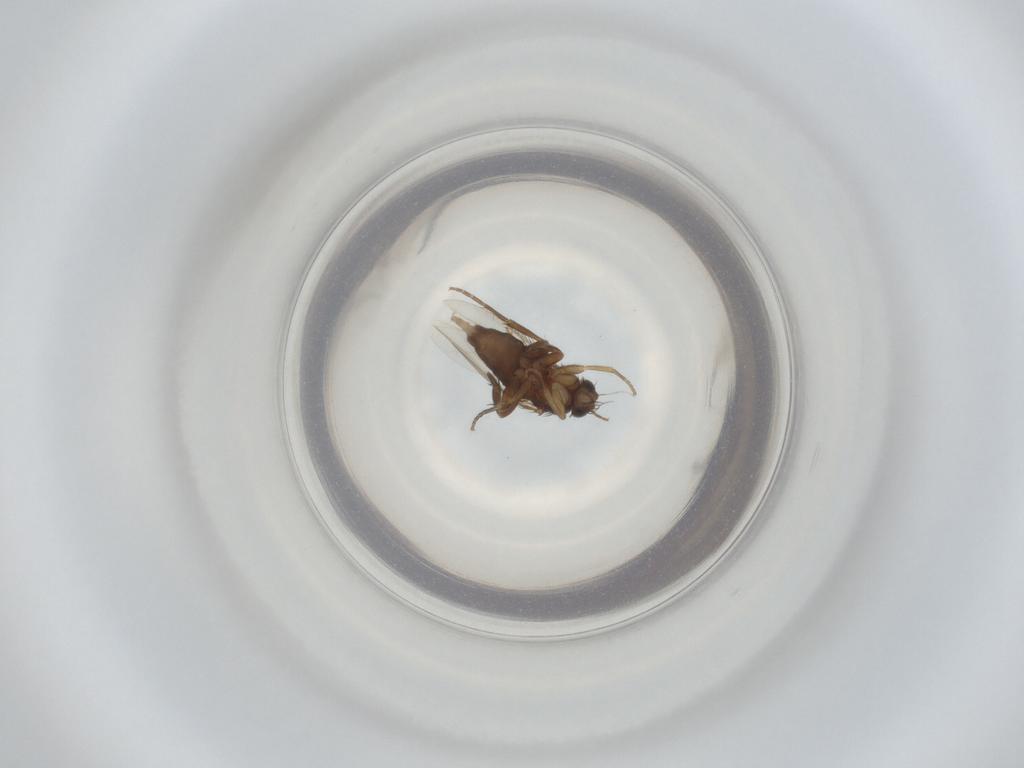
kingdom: Animalia
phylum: Arthropoda
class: Insecta
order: Diptera
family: Phoridae
